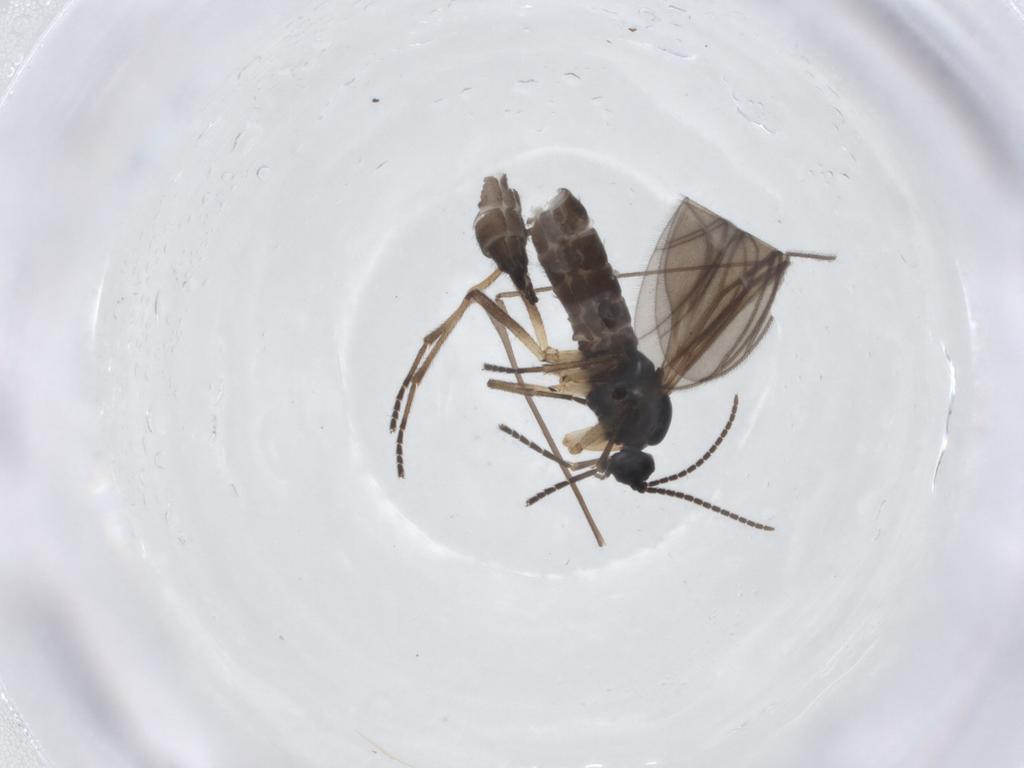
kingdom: Animalia
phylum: Arthropoda
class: Insecta
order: Diptera
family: Sciaridae
